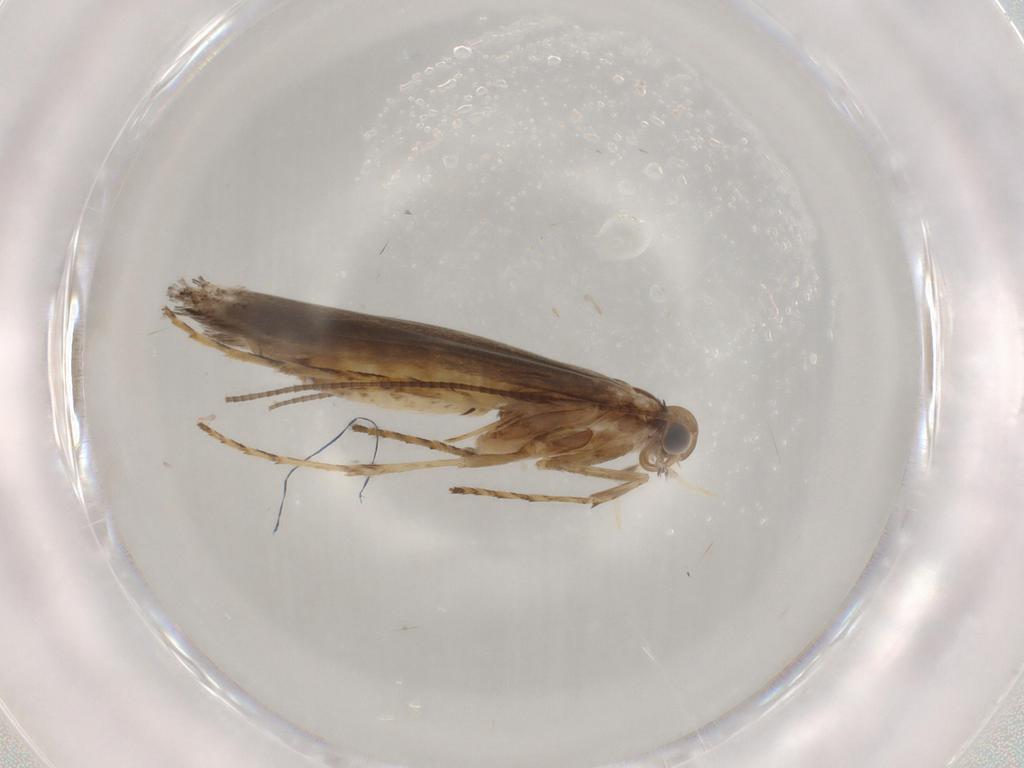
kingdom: Animalia
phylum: Arthropoda
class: Insecta
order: Lepidoptera
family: Gracillariidae
